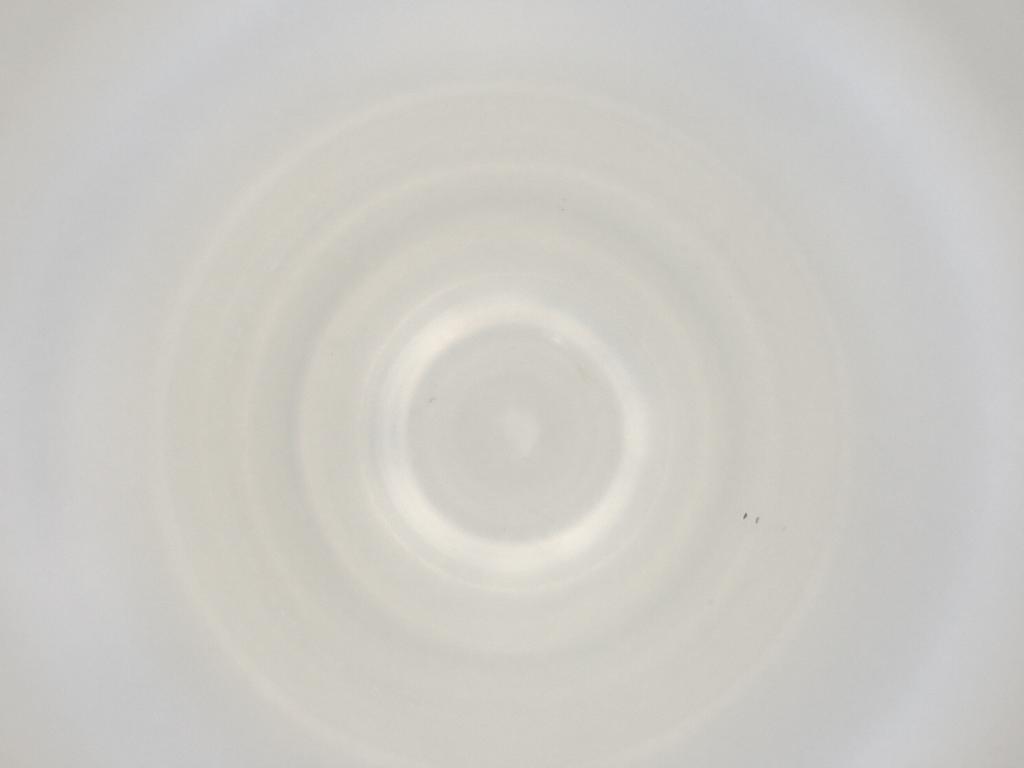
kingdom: Animalia
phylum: Arthropoda
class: Insecta
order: Diptera
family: Cecidomyiidae
